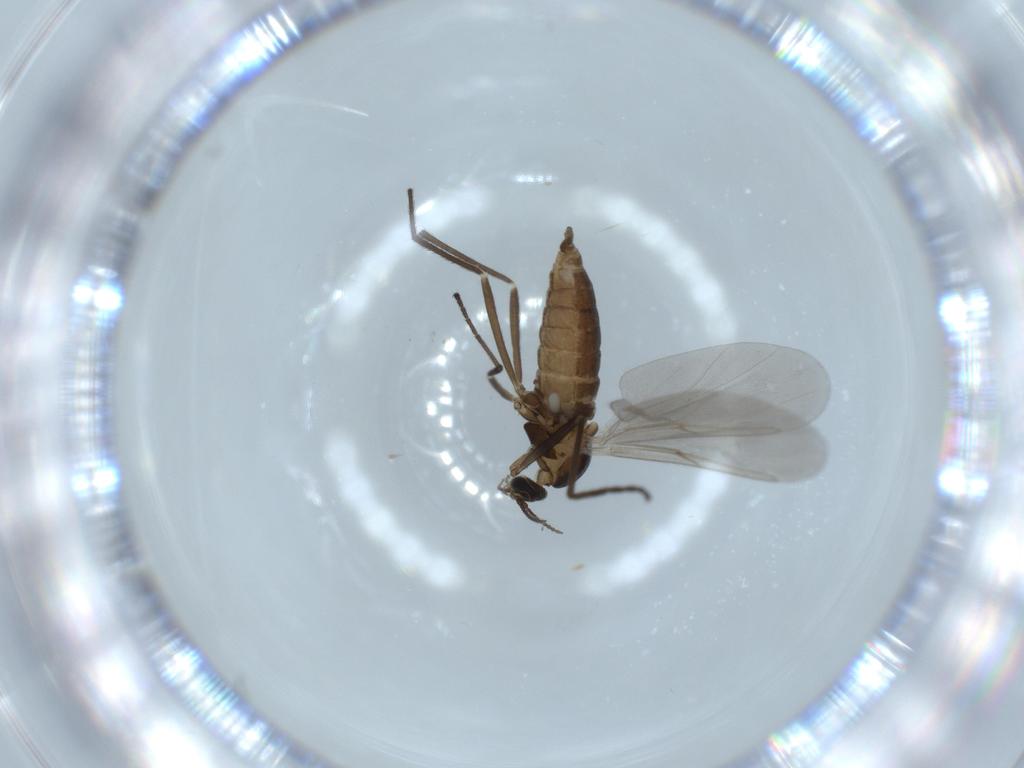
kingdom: Animalia
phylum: Arthropoda
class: Insecta
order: Diptera
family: Cecidomyiidae
